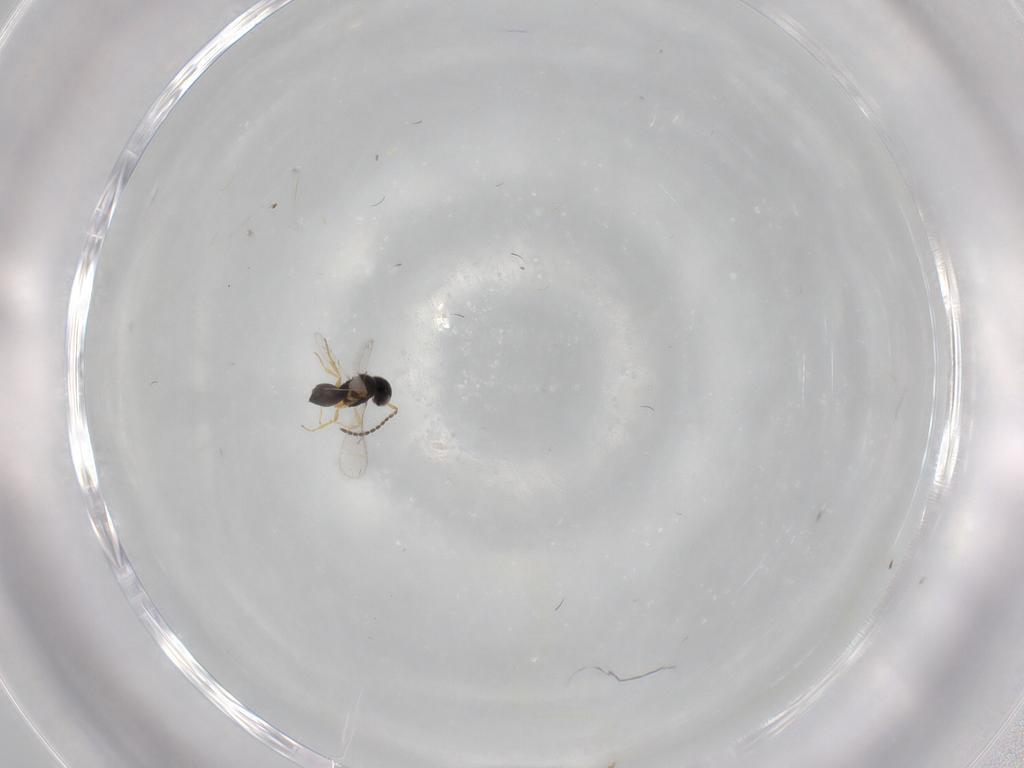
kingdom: Animalia
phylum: Arthropoda
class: Insecta
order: Hymenoptera
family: Scelionidae
